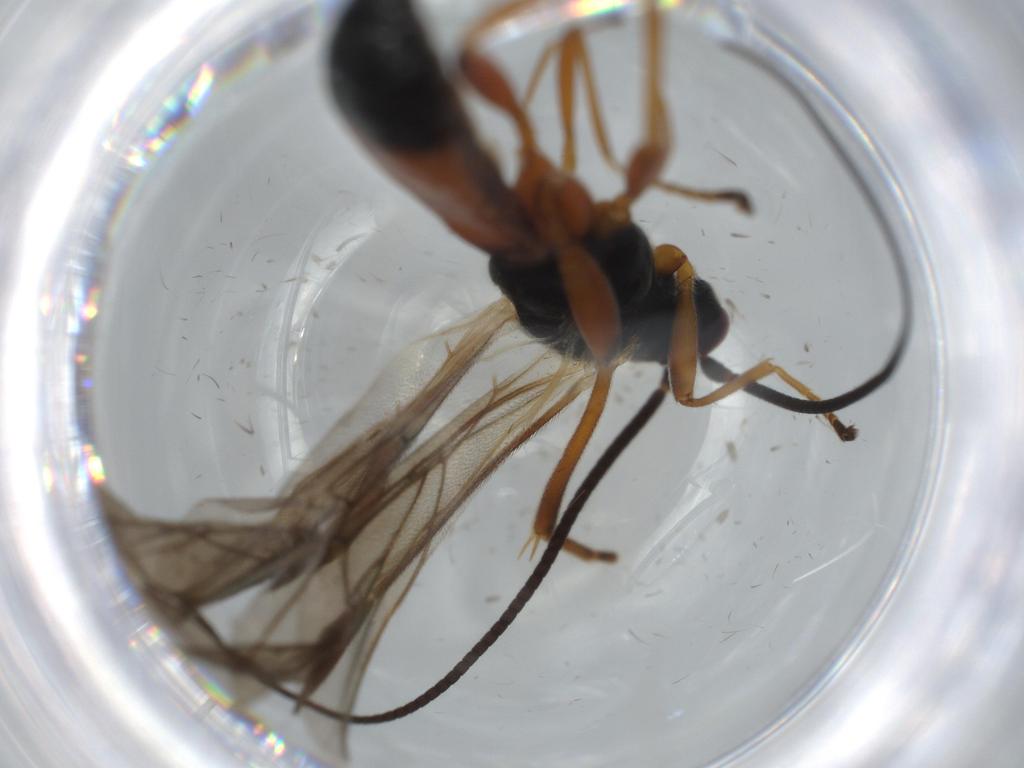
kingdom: Animalia
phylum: Arthropoda
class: Insecta
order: Hymenoptera
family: Braconidae
